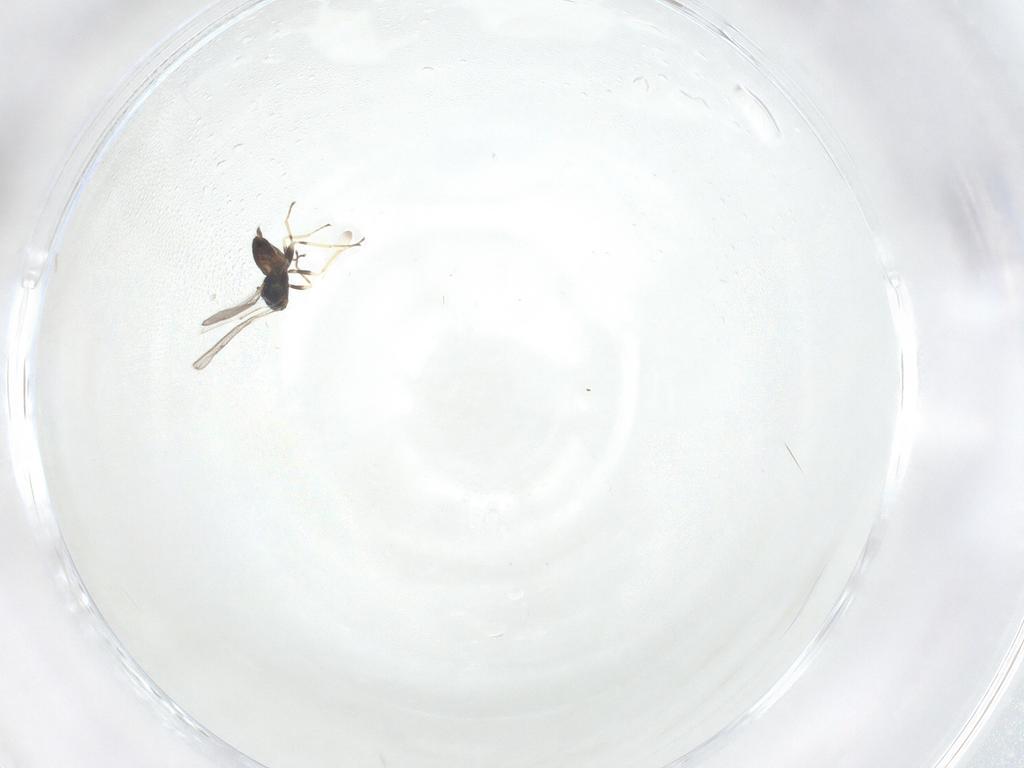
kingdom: Animalia
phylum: Arthropoda
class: Insecta
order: Hymenoptera
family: Eulophidae
